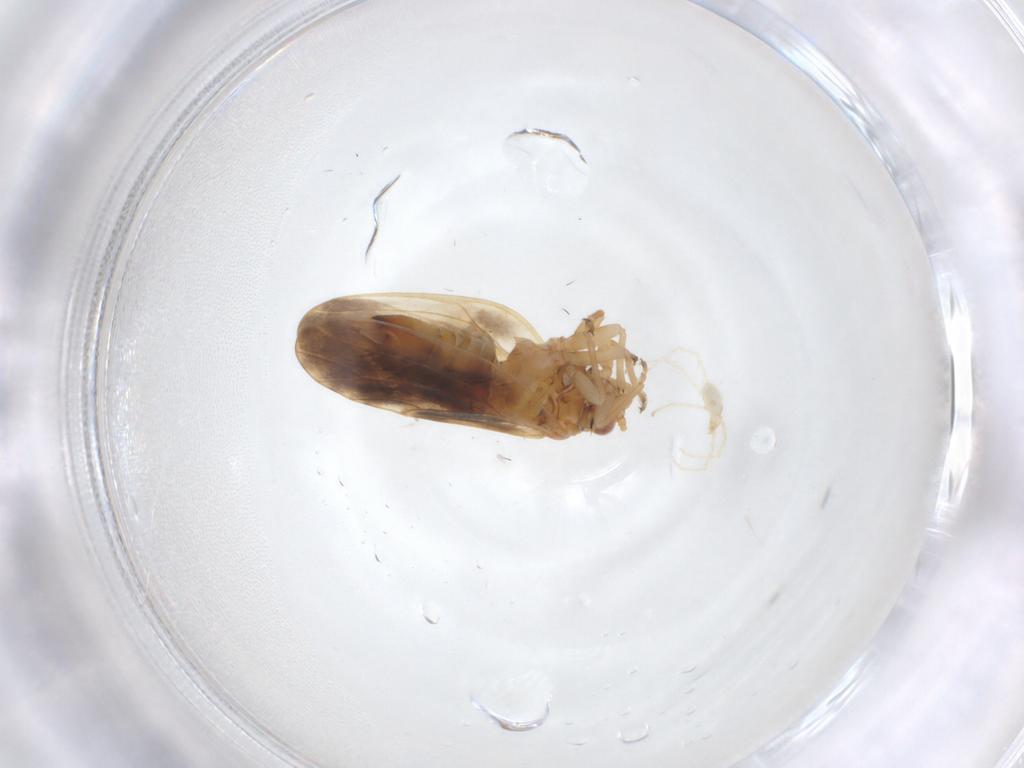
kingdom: Animalia
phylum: Arthropoda
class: Arachnida
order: Trombidiformes
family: Erythraeidae
